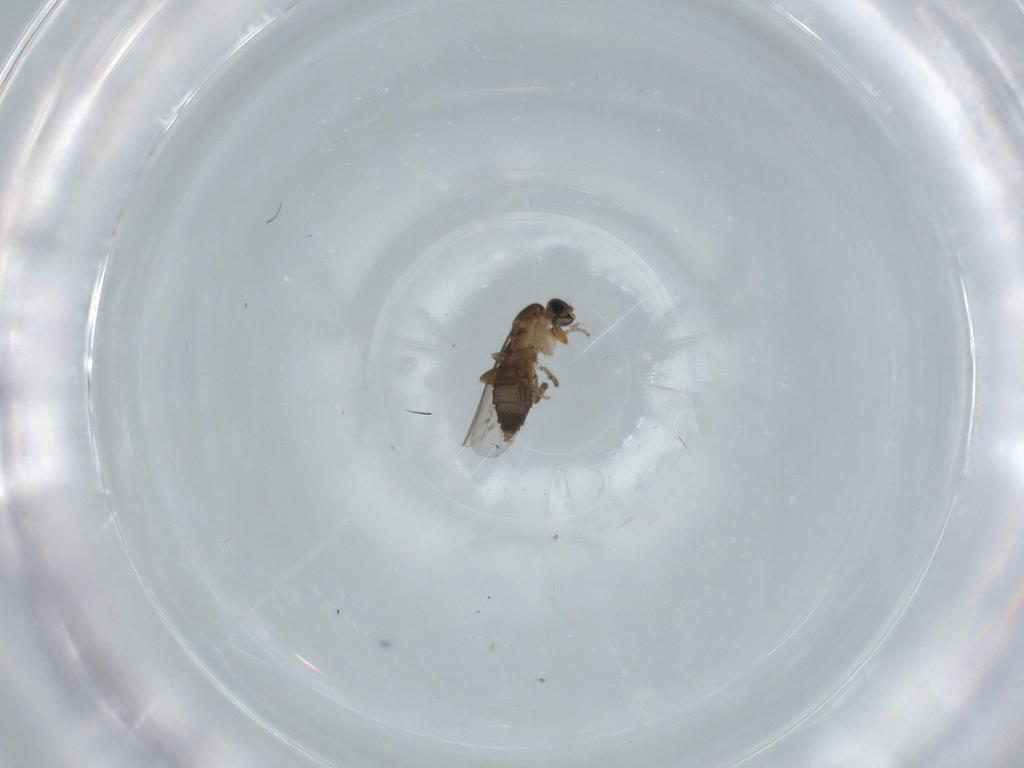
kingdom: Animalia
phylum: Arthropoda
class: Insecta
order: Diptera
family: Phoridae
